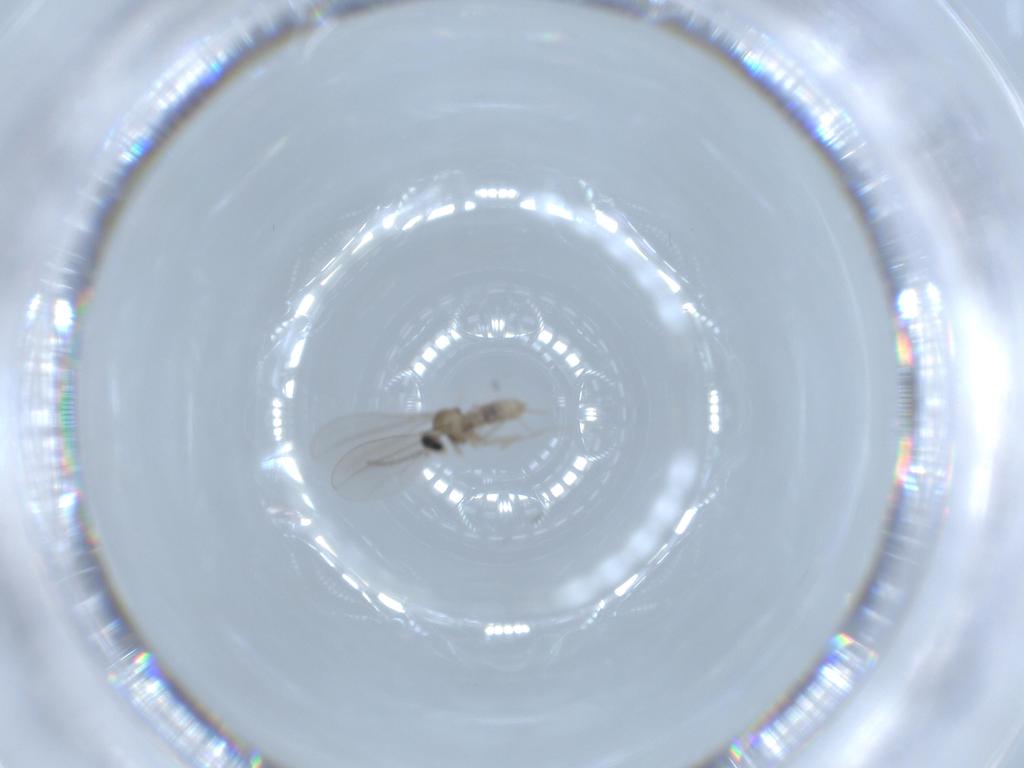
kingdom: Animalia
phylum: Arthropoda
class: Insecta
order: Diptera
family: Cecidomyiidae
